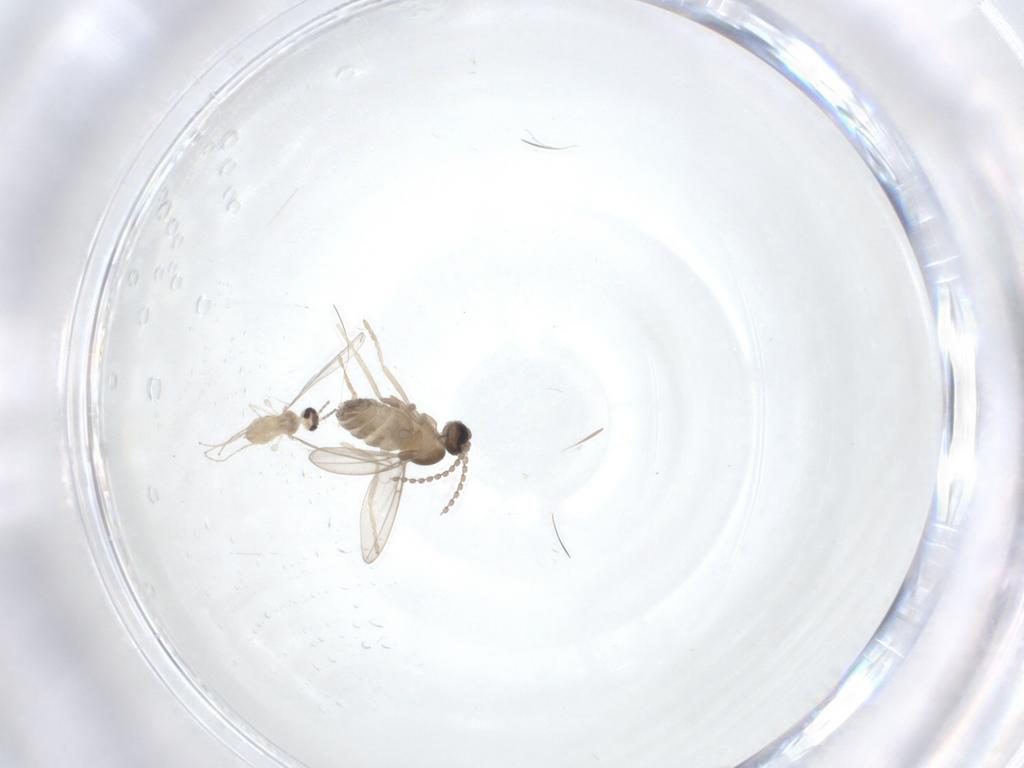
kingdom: Animalia
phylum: Arthropoda
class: Insecta
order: Diptera
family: Cecidomyiidae
